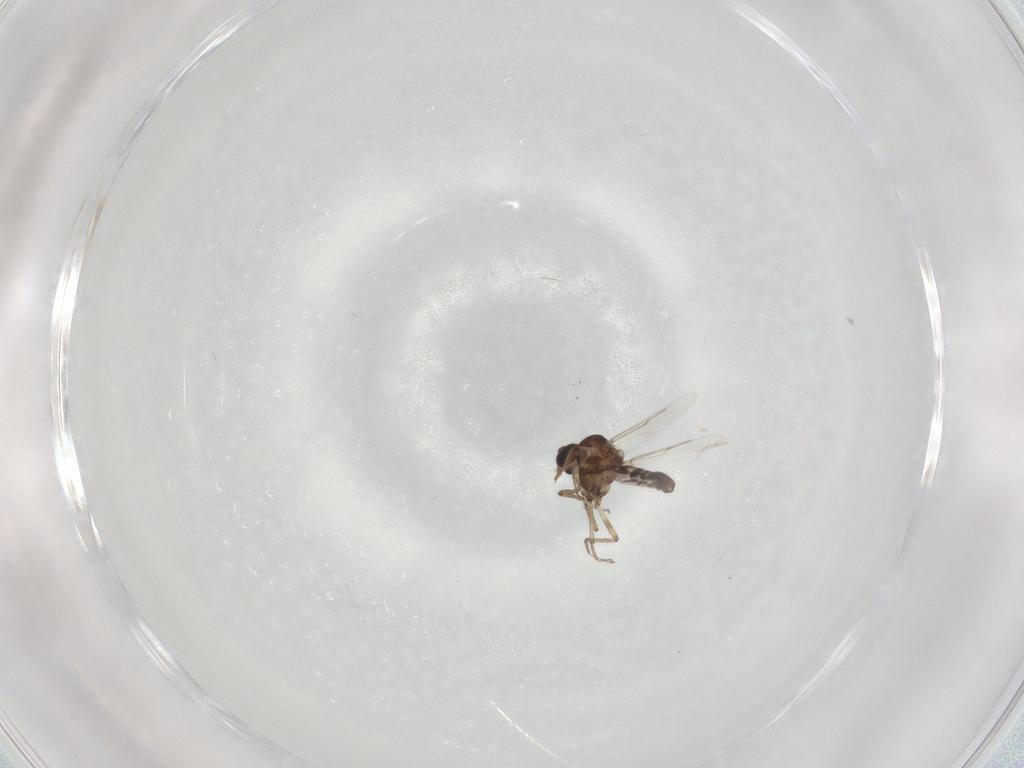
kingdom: Animalia
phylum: Arthropoda
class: Insecta
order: Diptera
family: Ceratopogonidae
